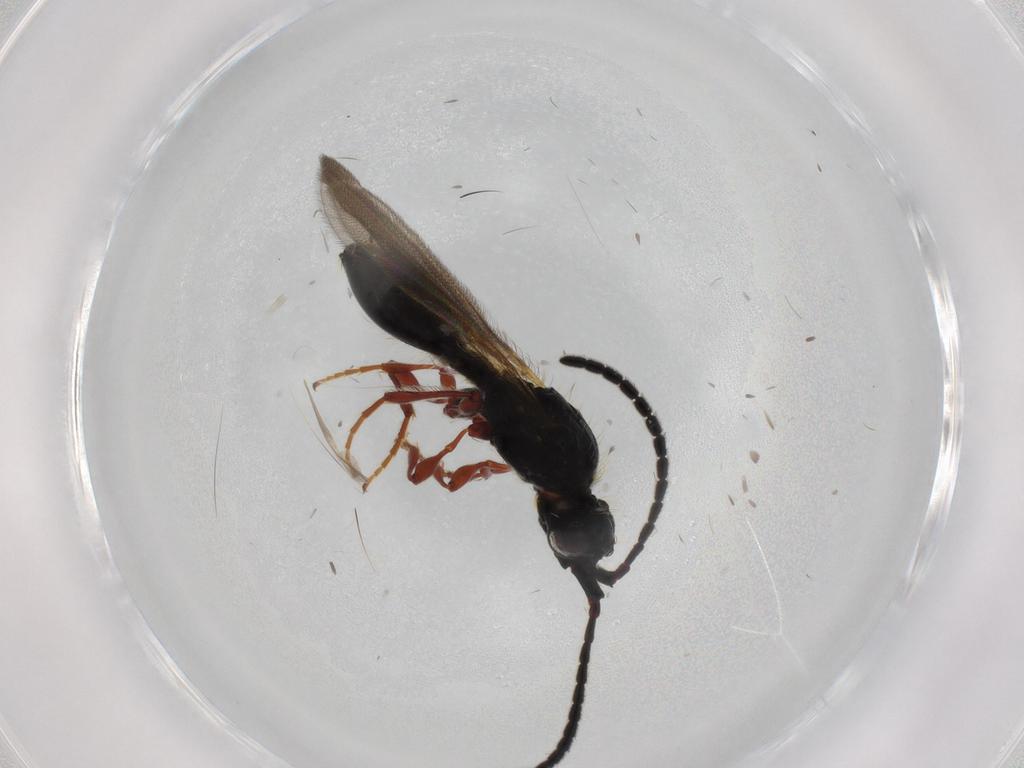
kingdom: Animalia
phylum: Arthropoda
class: Insecta
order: Hymenoptera
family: Diapriidae
